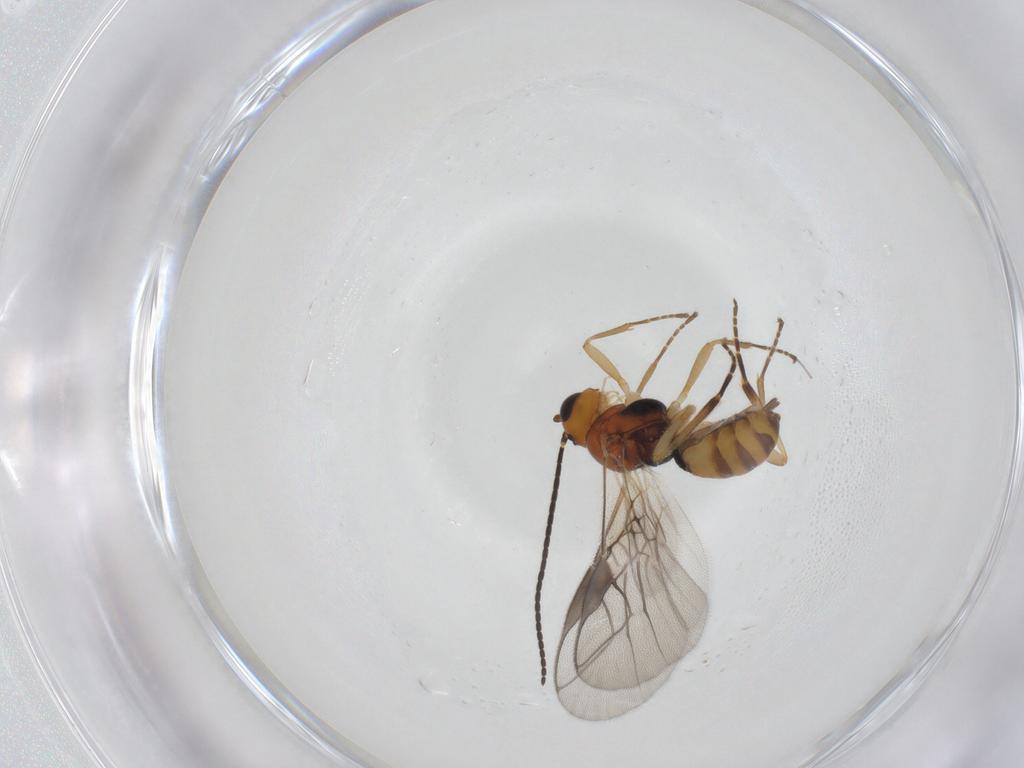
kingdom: Animalia
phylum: Arthropoda
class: Insecta
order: Hymenoptera
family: Braconidae
